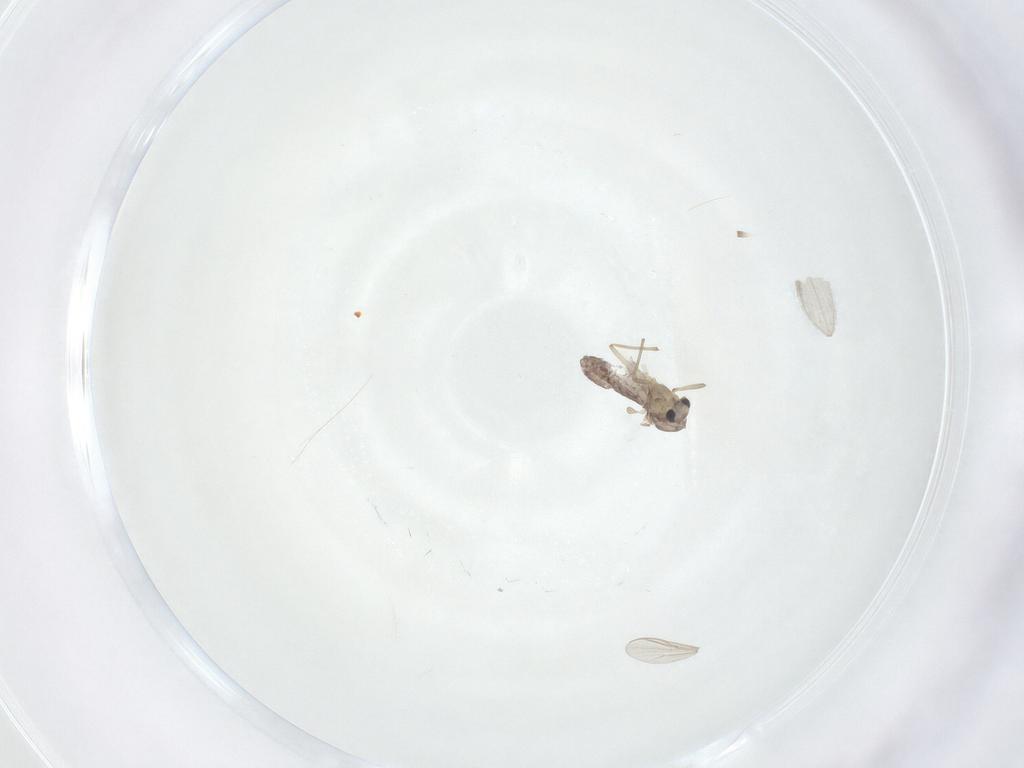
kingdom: Animalia
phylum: Arthropoda
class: Insecta
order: Diptera
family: Chironomidae
